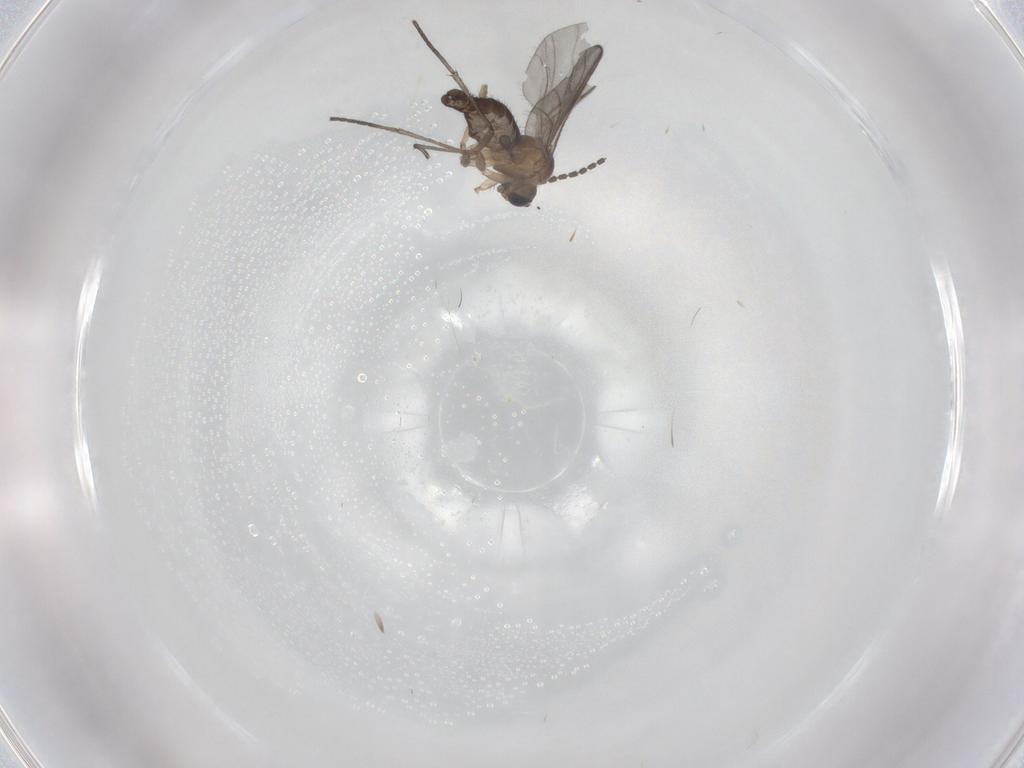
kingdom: Animalia
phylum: Arthropoda
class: Insecta
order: Diptera
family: Sciaridae
